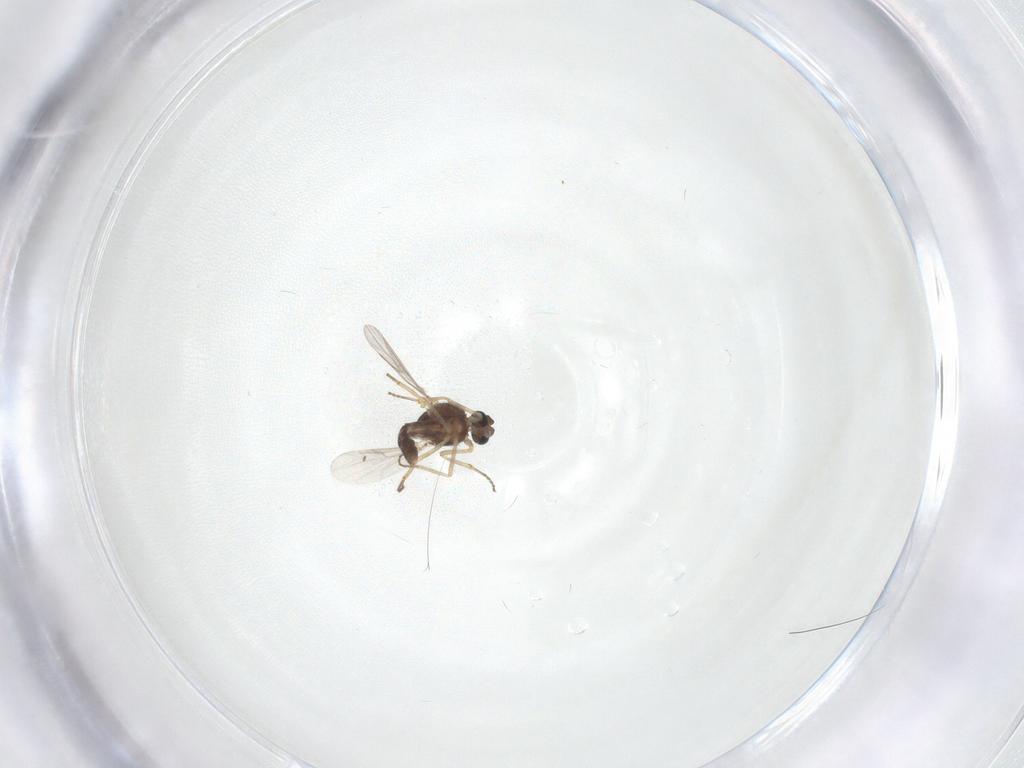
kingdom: Animalia
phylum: Arthropoda
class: Insecta
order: Diptera
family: Ceratopogonidae
